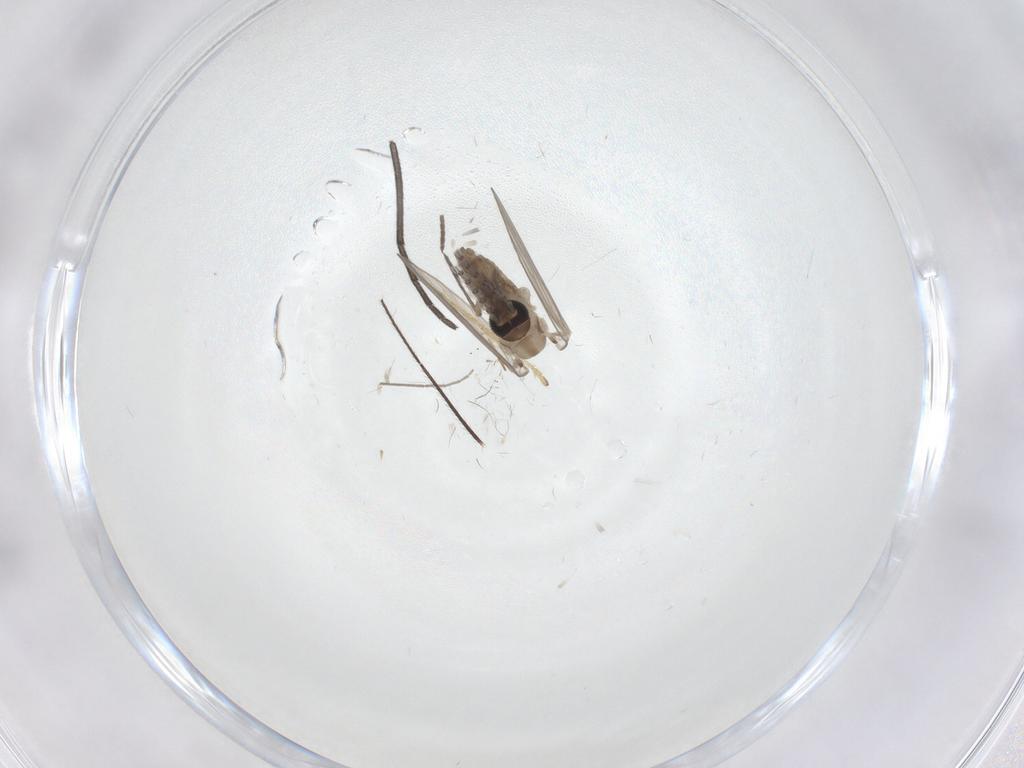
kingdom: Animalia
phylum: Arthropoda
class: Insecta
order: Diptera
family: Psychodidae
